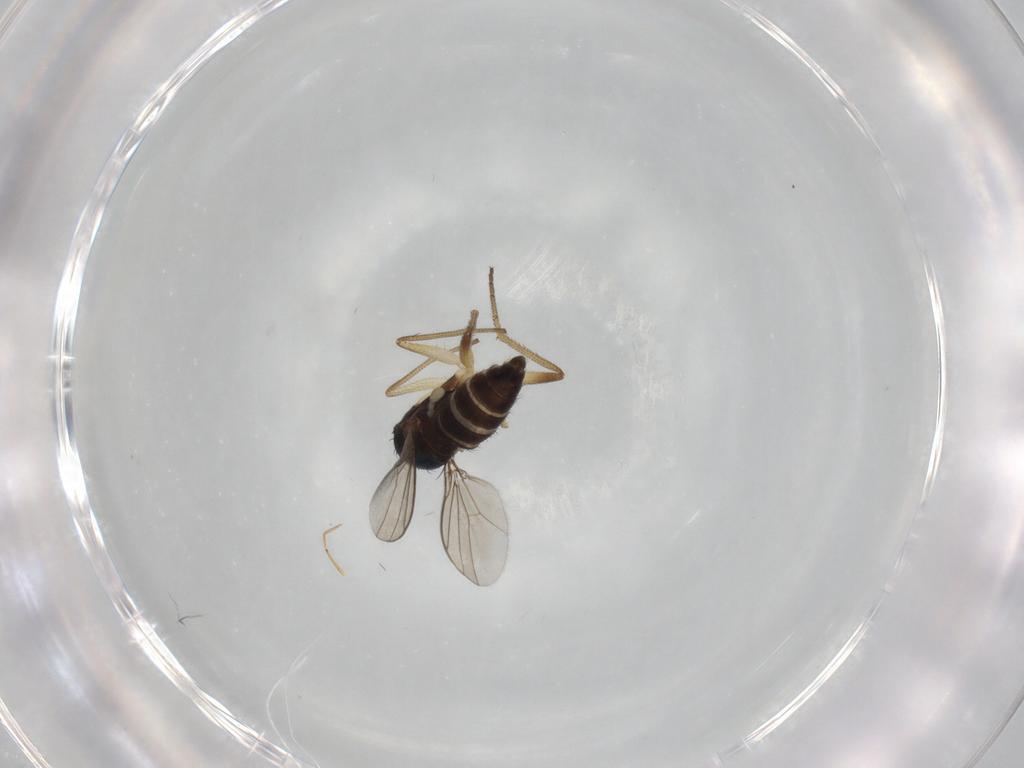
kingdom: Animalia
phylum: Arthropoda
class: Insecta
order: Diptera
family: Dolichopodidae
